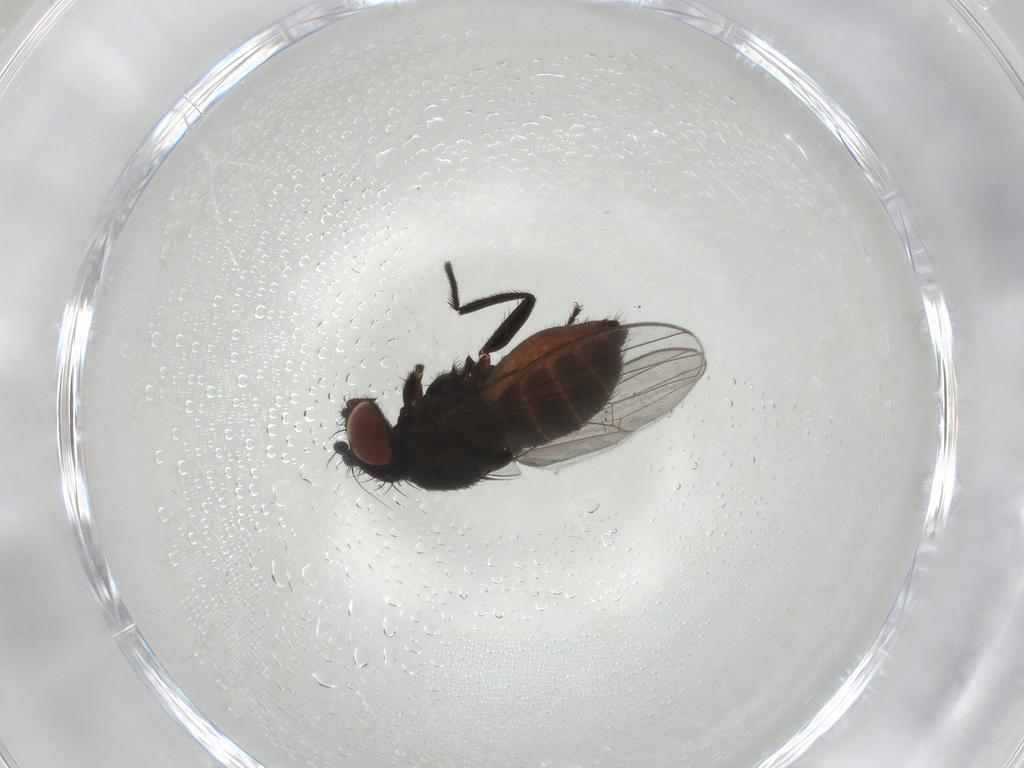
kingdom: Animalia
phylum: Arthropoda
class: Insecta
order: Diptera
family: Milichiidae
